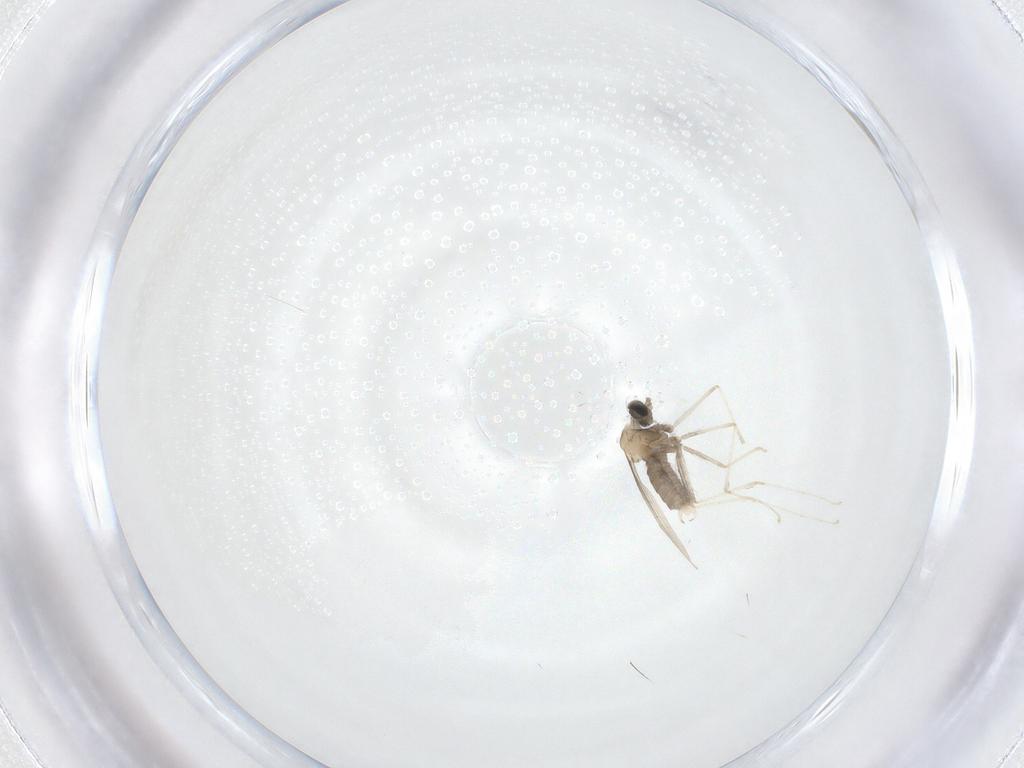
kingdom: Animalia
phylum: Arthropoda
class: Insecta
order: Diptera
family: Cecidomyiidae
